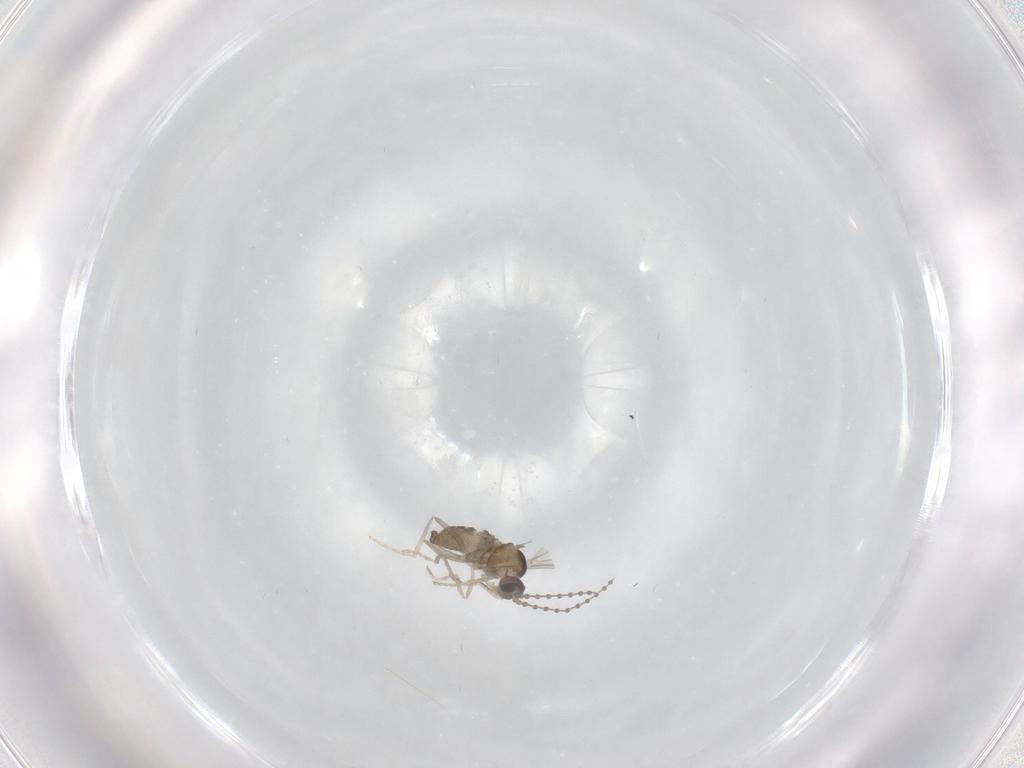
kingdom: Animalia
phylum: Arthropoda
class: Insecta
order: Diptera
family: Cecidomyiidae
